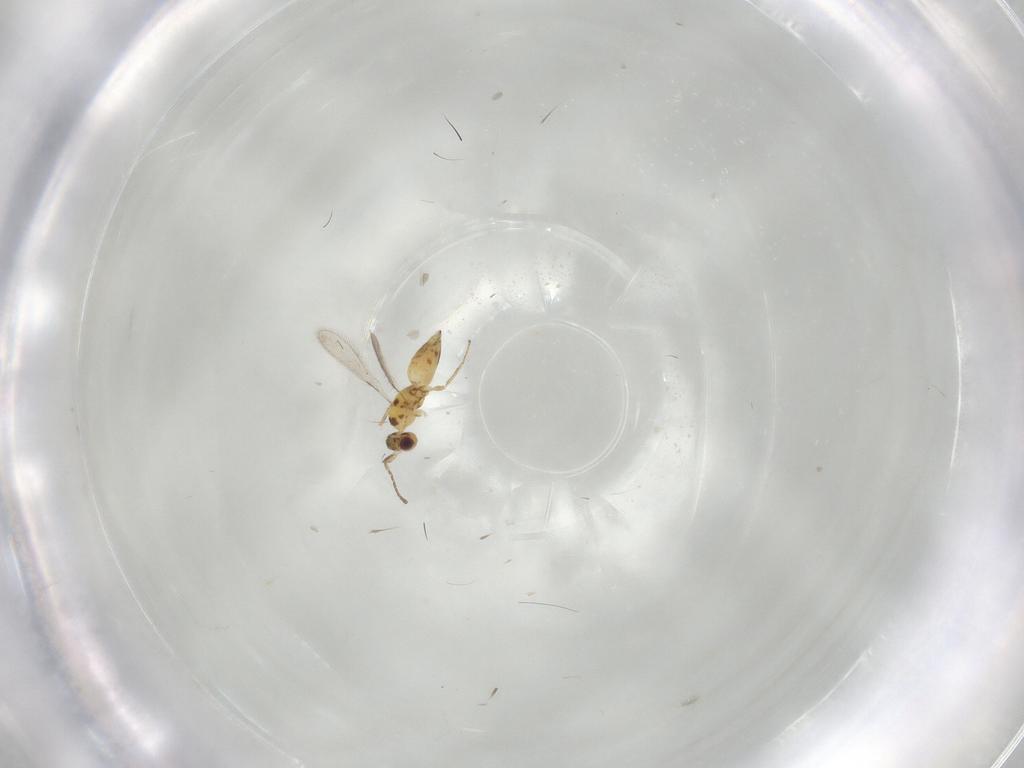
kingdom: Animalia
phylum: Arthropoda
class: Insecta
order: Hymenoptera
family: Mymaridae
